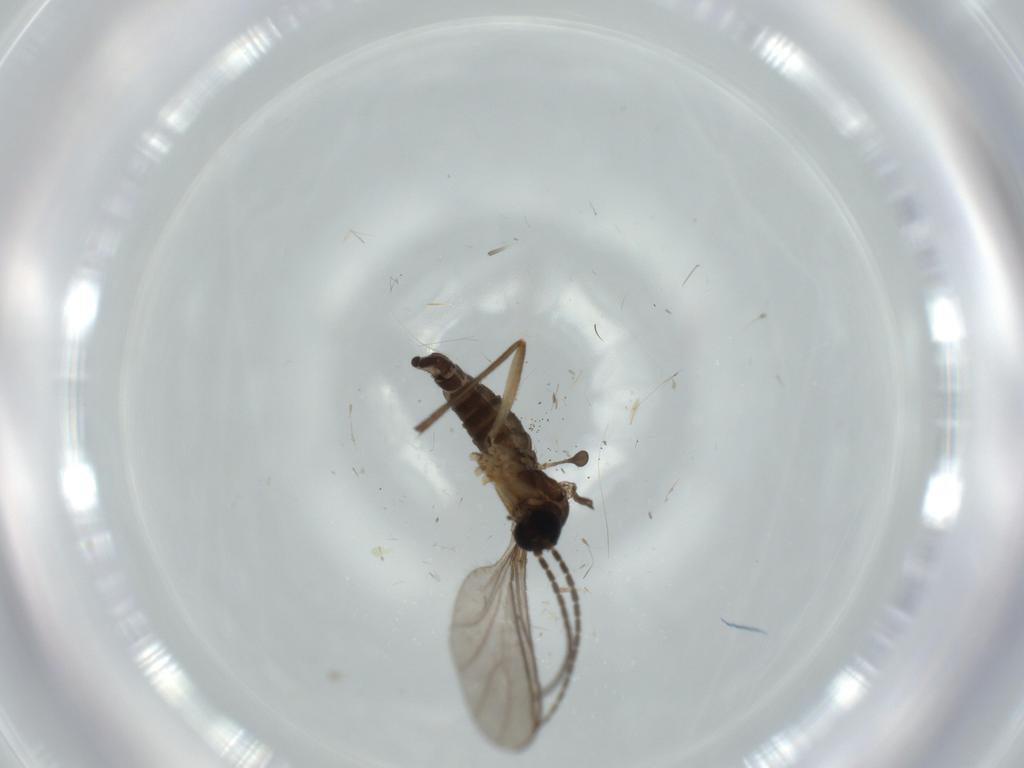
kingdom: Animalia
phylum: Arthropoda
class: Insecta
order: Diptera
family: Sciaridae
